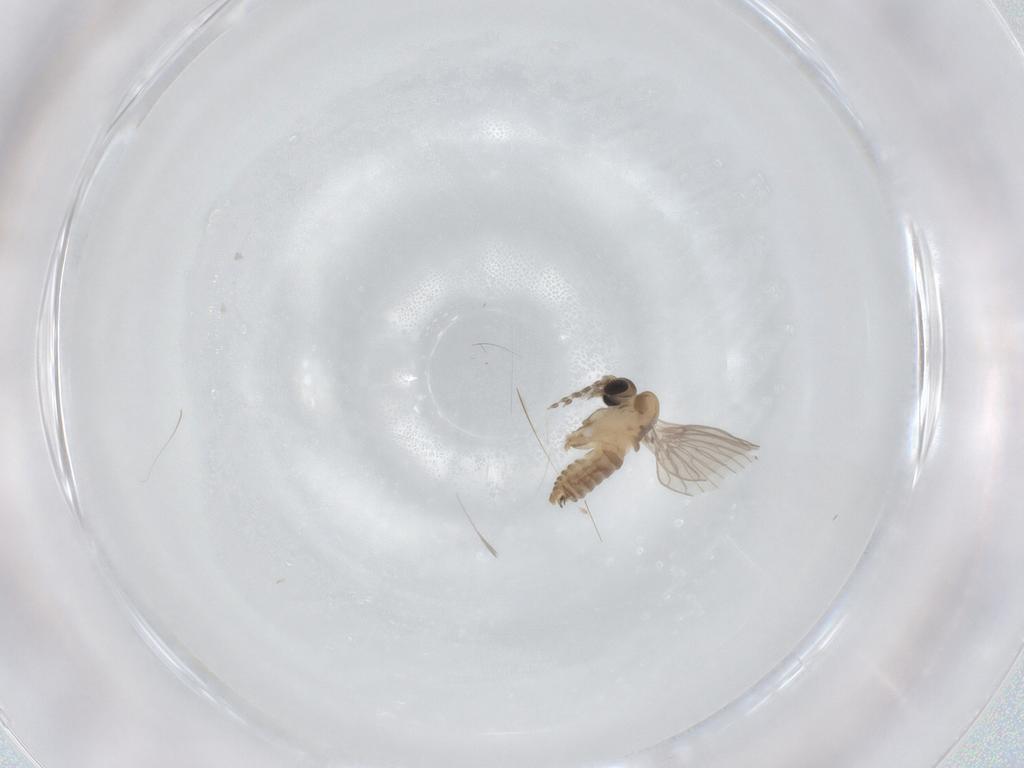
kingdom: Animalia
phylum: Arthropoda
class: Insecta
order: Diptera
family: Psychodidae
